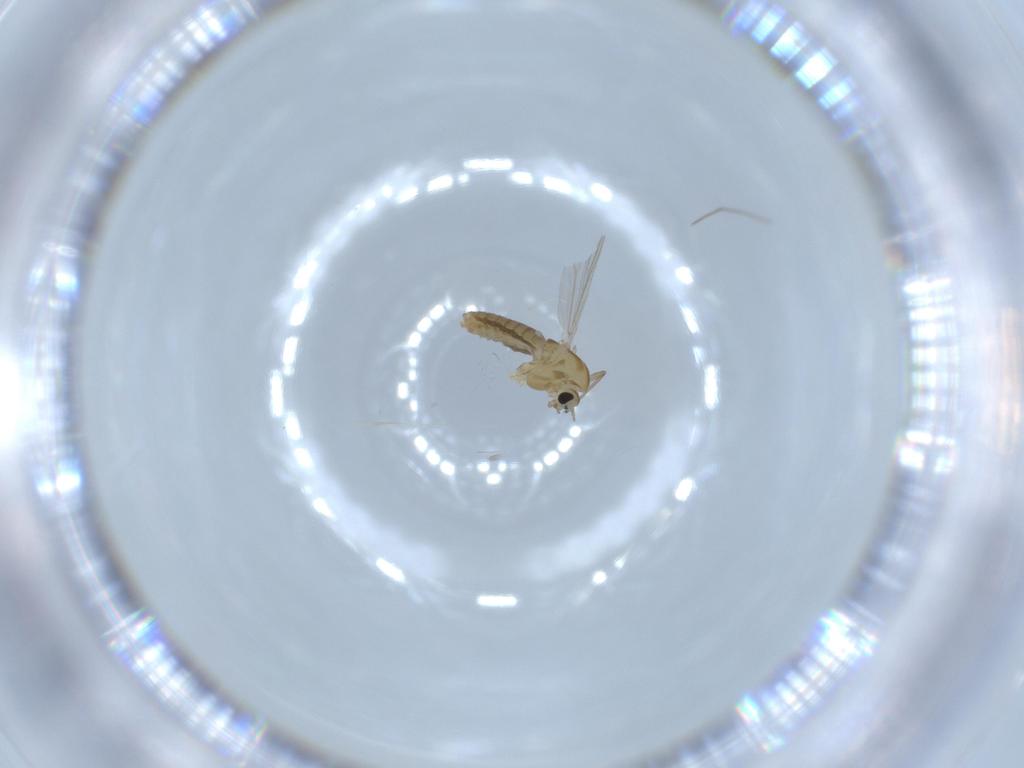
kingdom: Animalia
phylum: Arthropoda
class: Insecta
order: Diptera
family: Chironomidae
